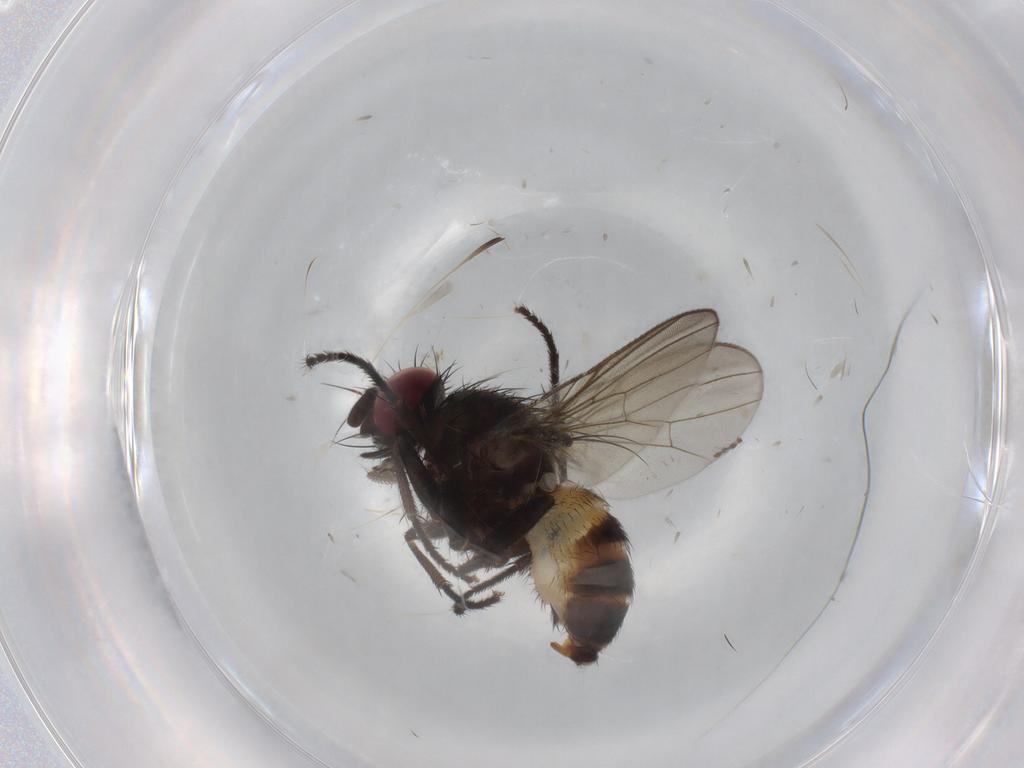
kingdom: Animalia
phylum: Arthropoda
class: Insecta
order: Diptera
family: Fanniidae
